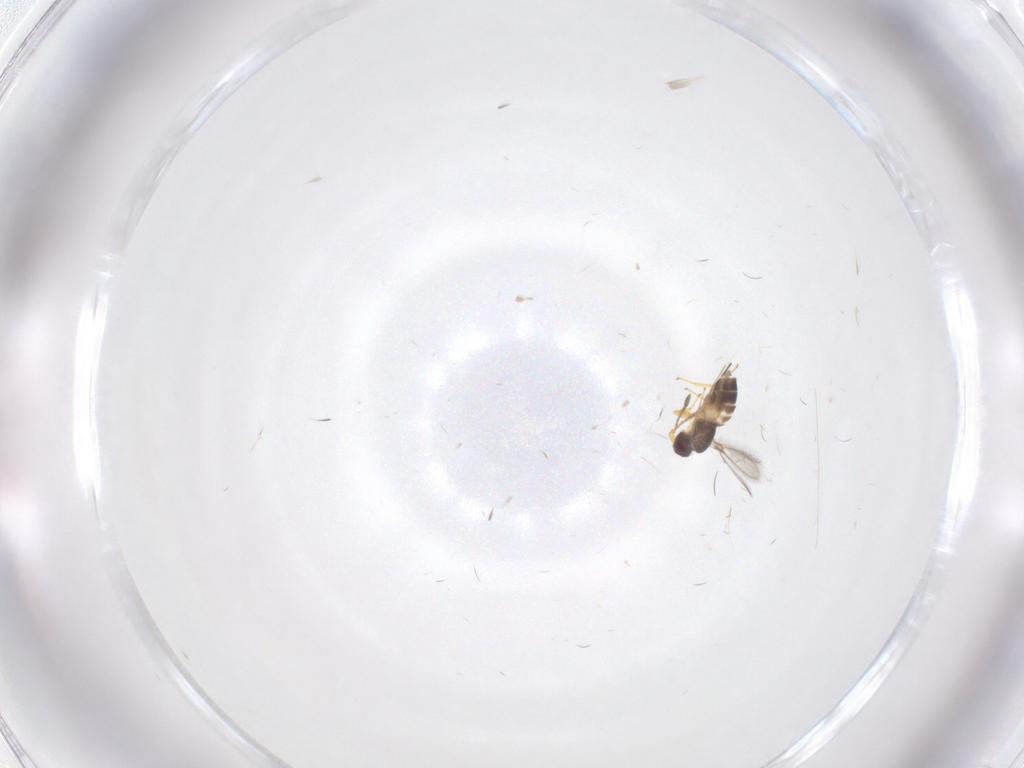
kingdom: Animalia
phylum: Arthropoda
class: Insecta
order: Hymenoptera
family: Mymaridae
